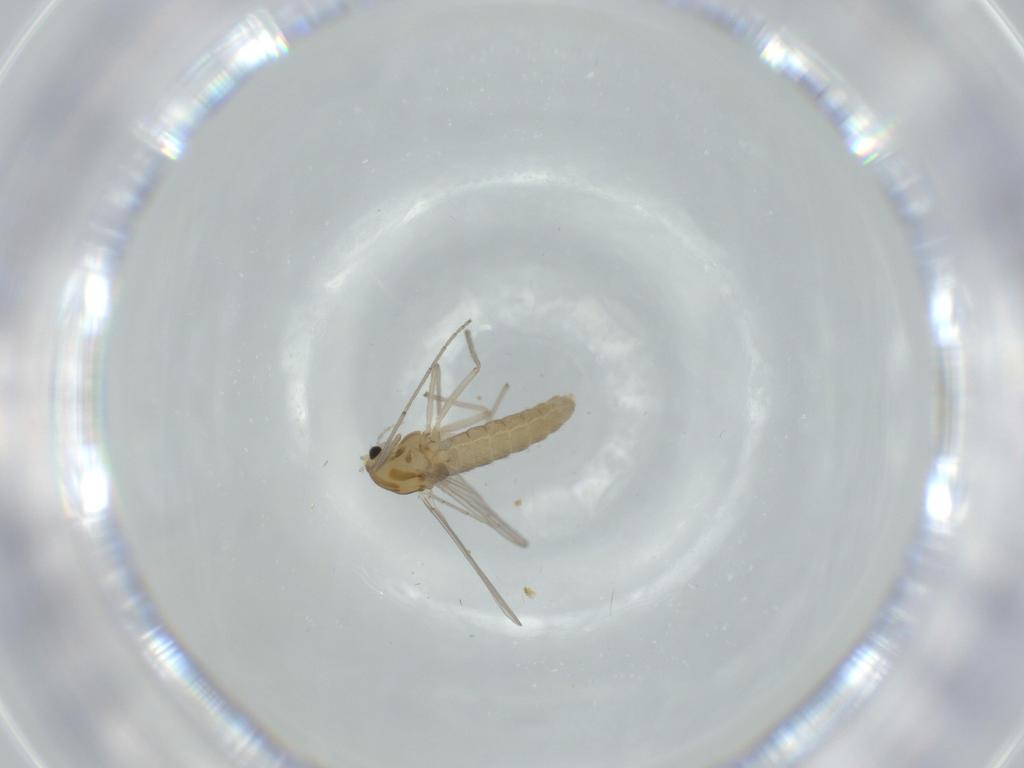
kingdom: Animalia
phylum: Arthropoda
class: Insecta
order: Diptera
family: Chironomidae
